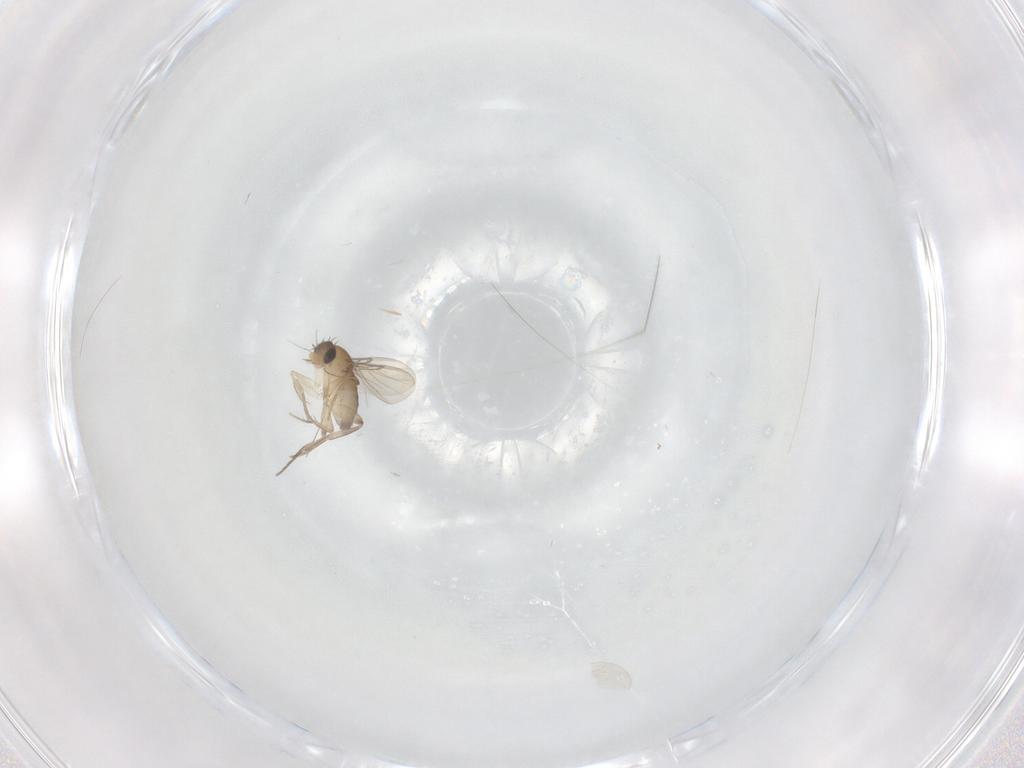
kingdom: Animalia
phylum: Arthropoda
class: Insecta
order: Diptera
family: Phoridae
